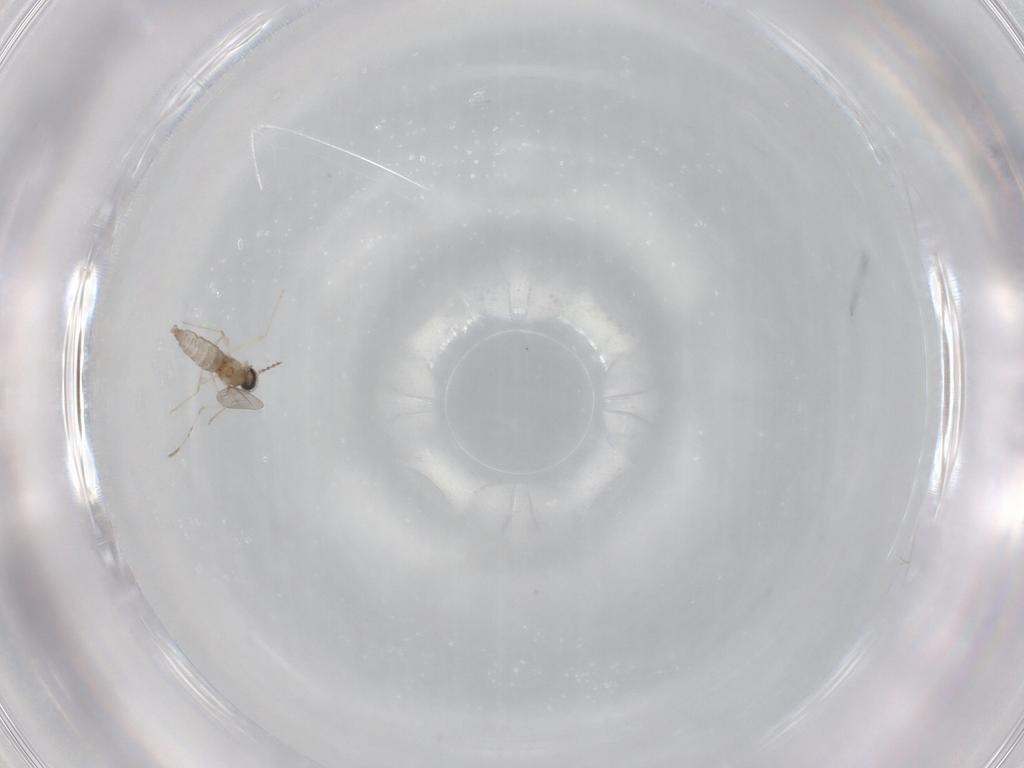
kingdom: Animalia
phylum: Arthropoda
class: Insecta
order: Diptera
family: Cecidomyiidae
